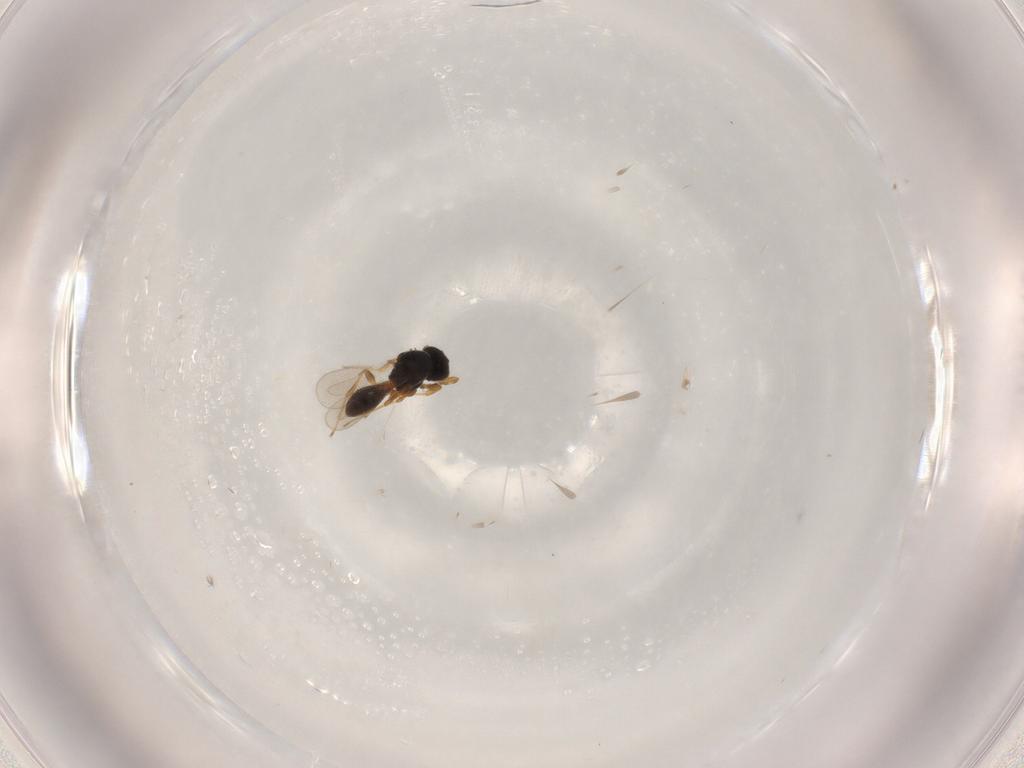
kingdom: Animalia
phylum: Arthropoda
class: Insecta
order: Hymenoptera
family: Platygastridae
